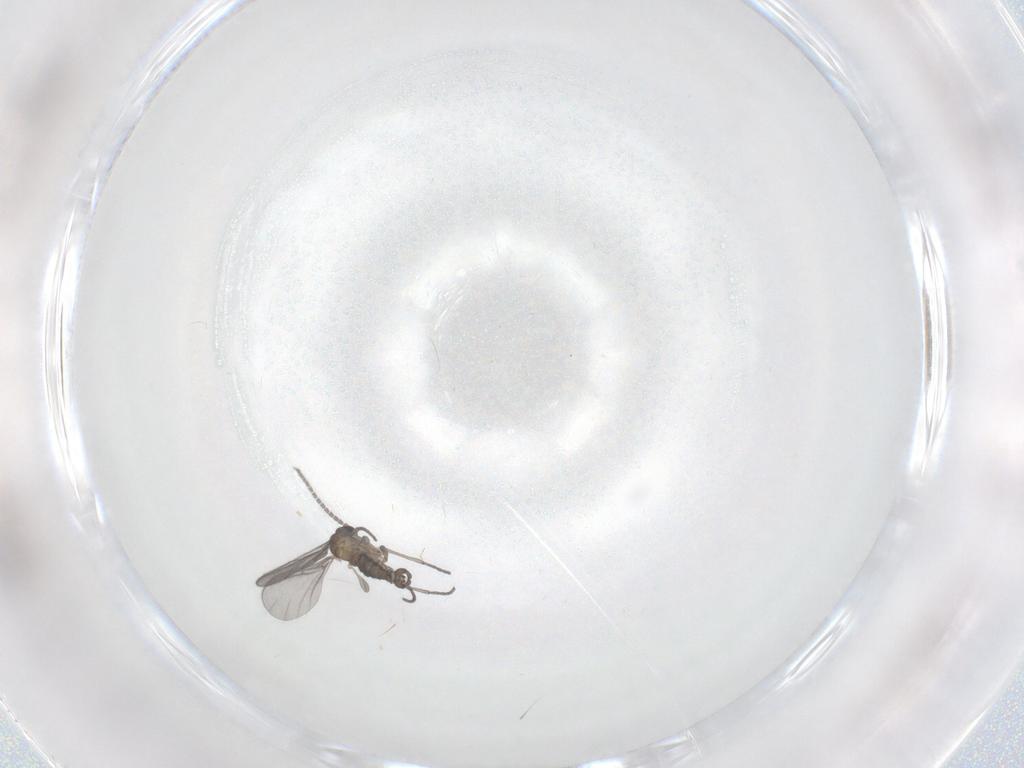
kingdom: Animalia
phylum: Arthropoda
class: Insecta
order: Diptera
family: Sciaridae
